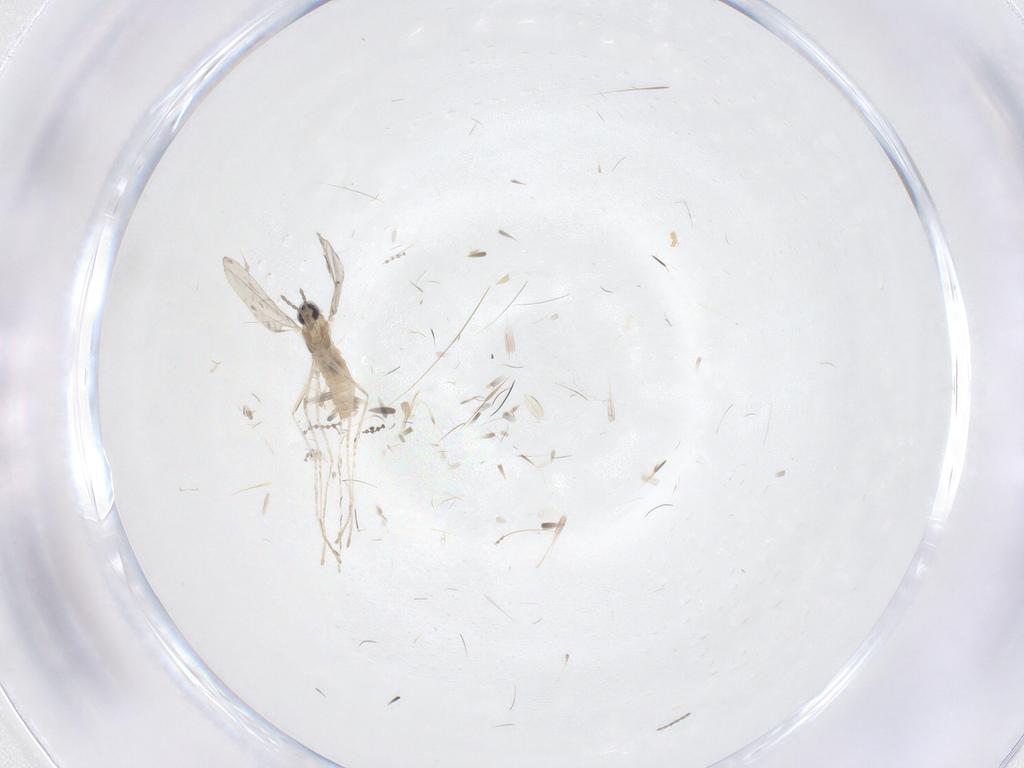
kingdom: Animalia
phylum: Arthropoda
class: Insecta
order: Diptera
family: Cecidomyiidae
